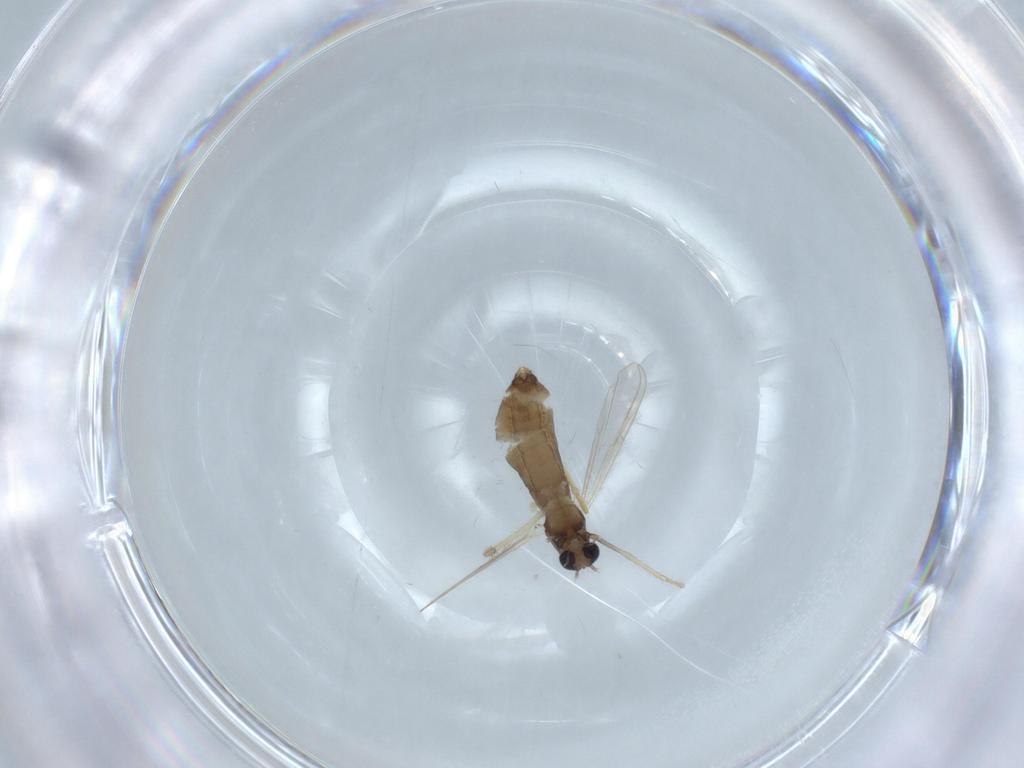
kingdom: Animalia
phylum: Arthropoda
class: Insecta
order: Diptera
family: Chironomidae
